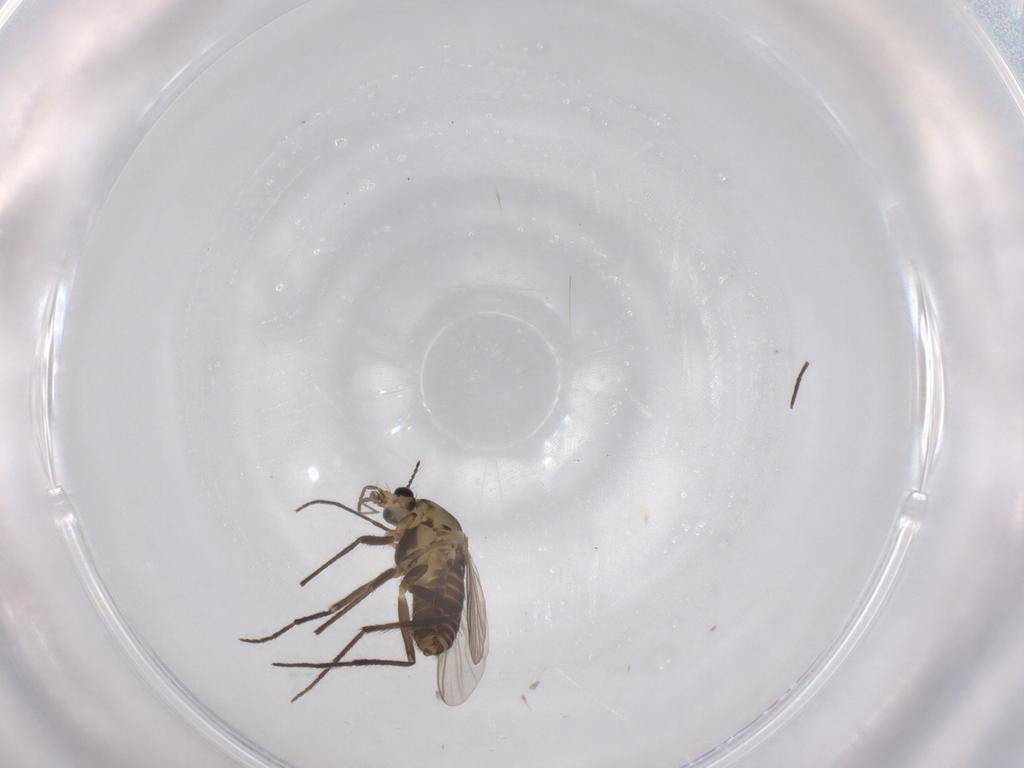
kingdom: Animalia
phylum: Arthropoda
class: Insecta
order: Diptera
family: Chironomidae
